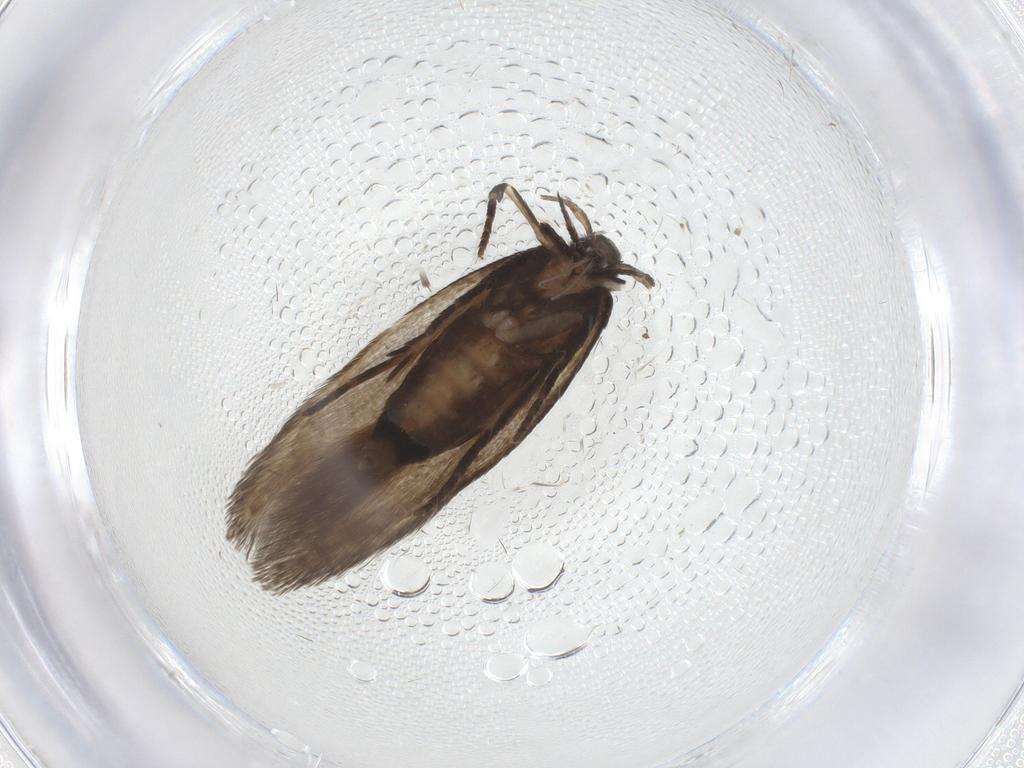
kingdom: Animalia
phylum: Arthropoda
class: Insecta
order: Lepidoptera
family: Cosmopterigidae
